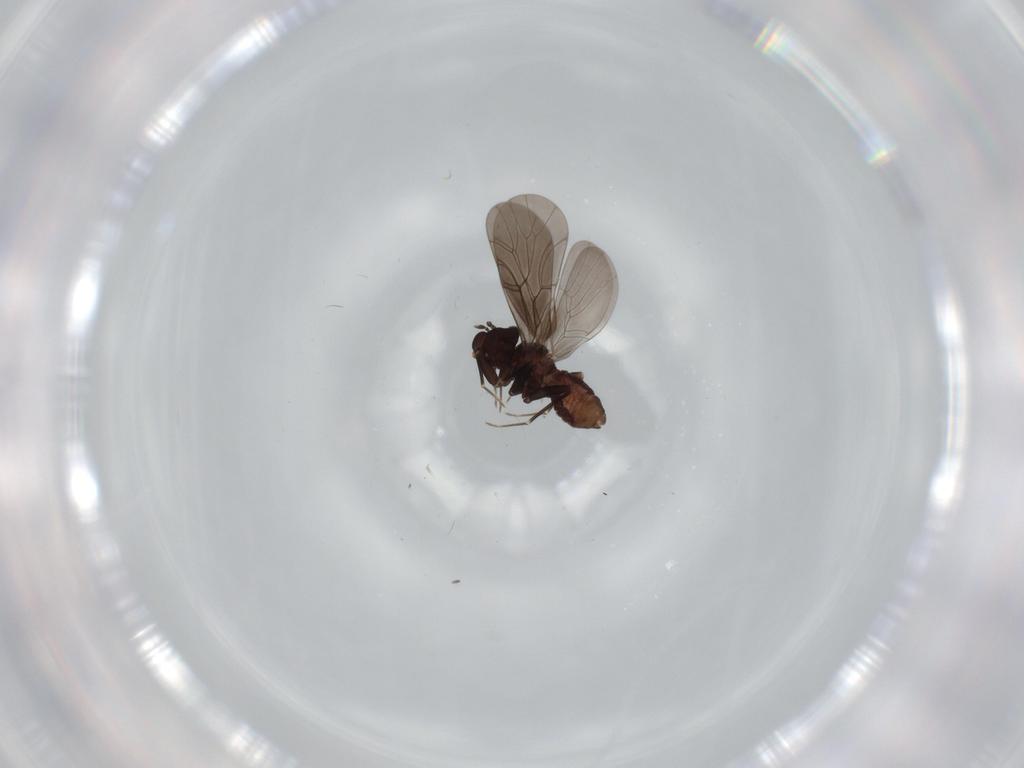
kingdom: Animalia
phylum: Arthropoda
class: Insecta
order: Psocodea
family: Lepidopsocidae
